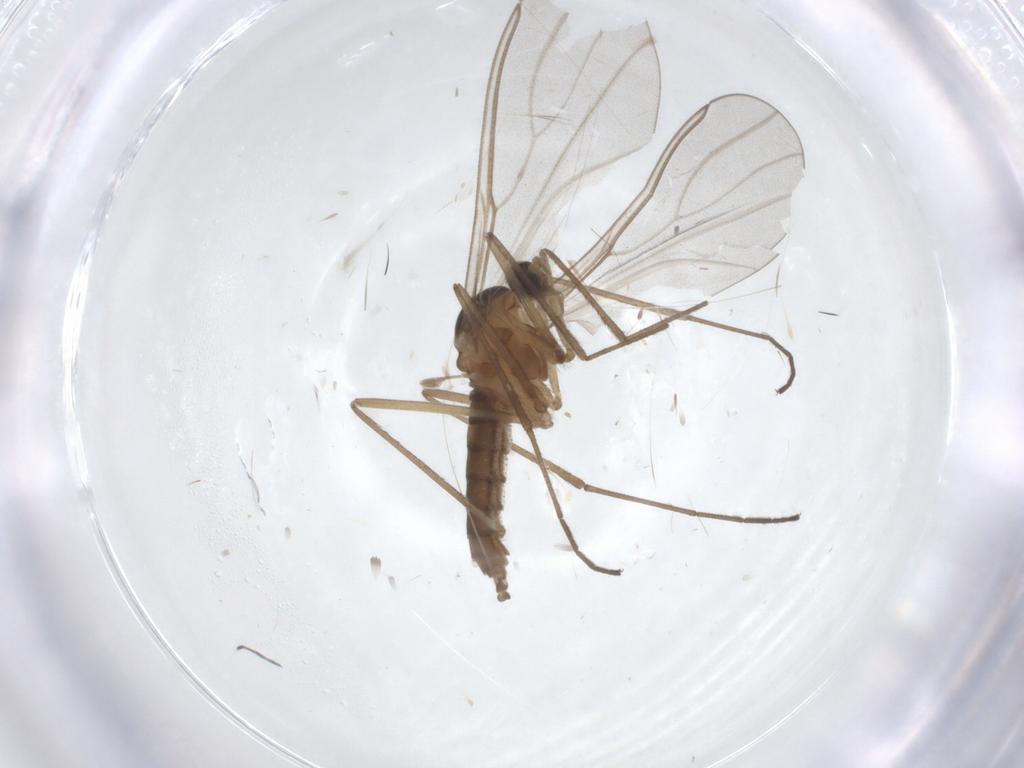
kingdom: Animalia
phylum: Arthropoda
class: Insecta
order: Diptera
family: Cecidomyiidae
